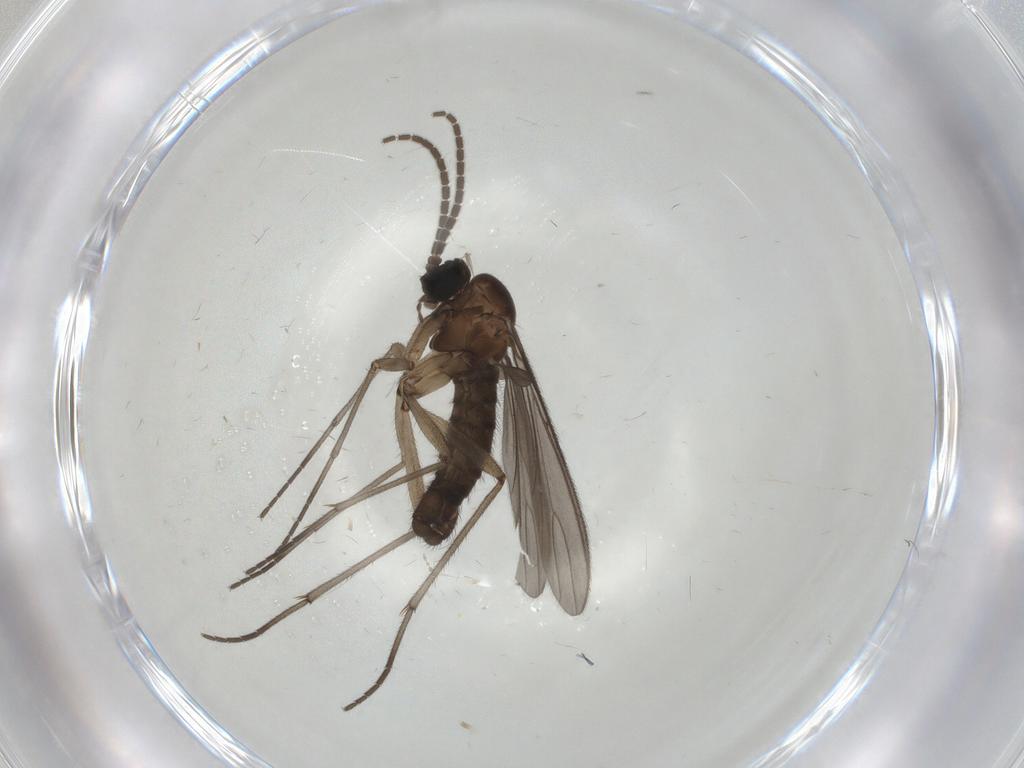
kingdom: Animalia
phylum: Arthropoda
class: Insecta
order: Diptera
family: Sciaridae
